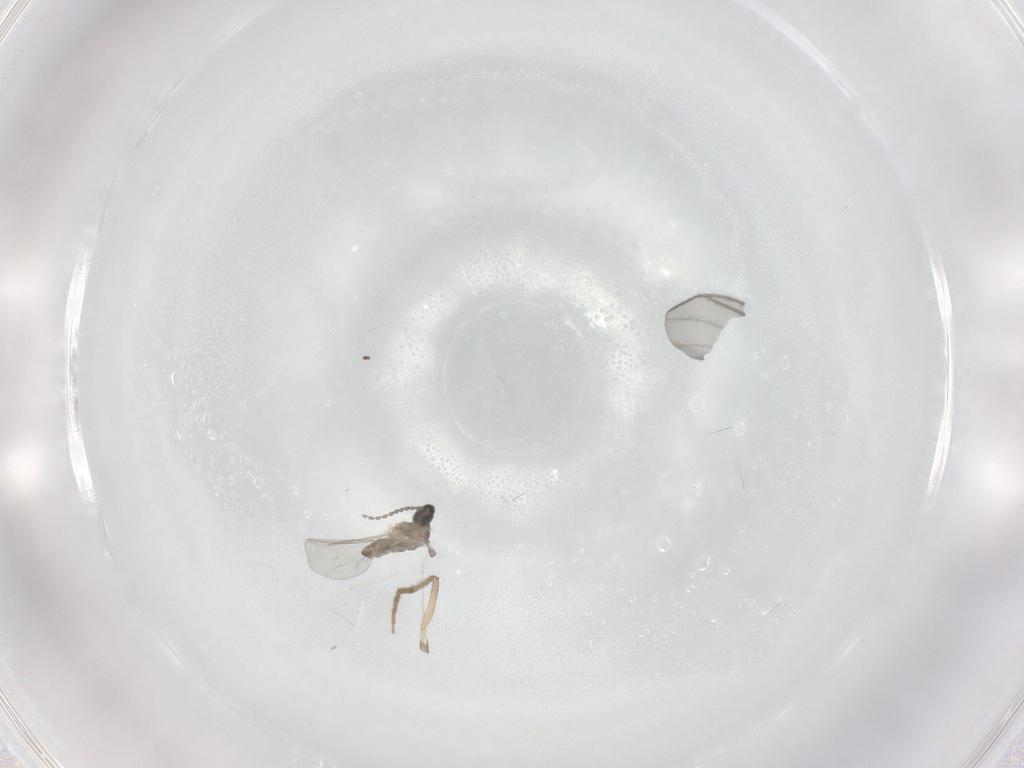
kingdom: Animalia
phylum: Arthropoda
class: Insecta
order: Diptera
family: Chironomidae
